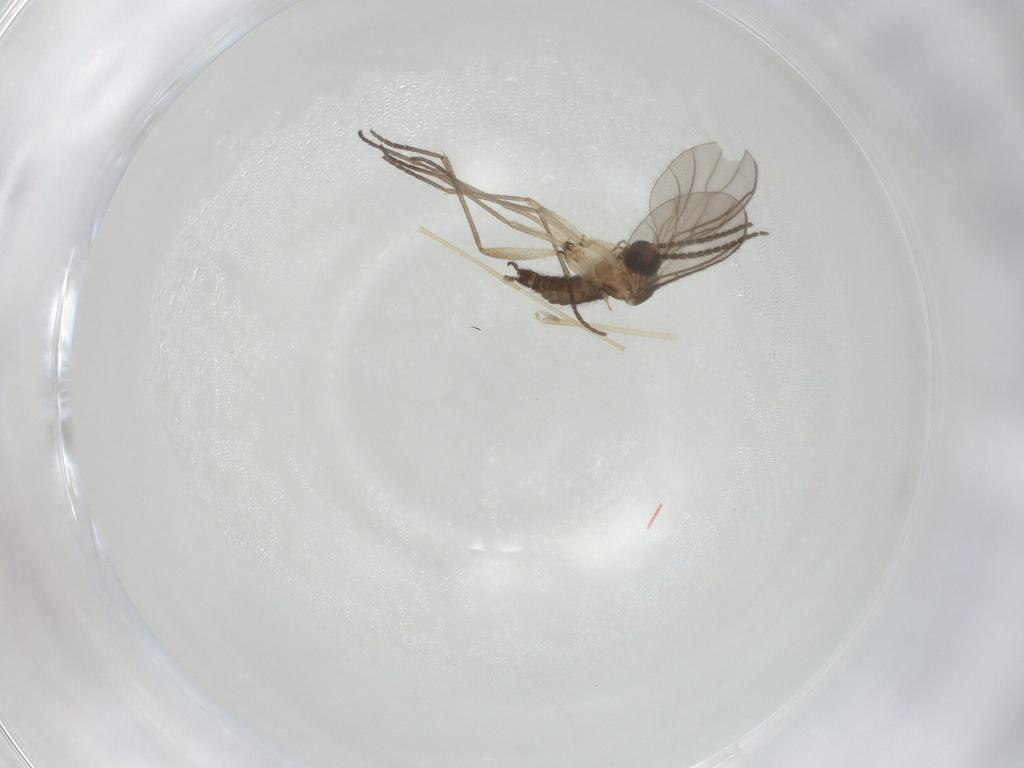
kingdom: Animalia
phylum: Arthropoda
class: Insecta
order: Diptera
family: Sciaridae
